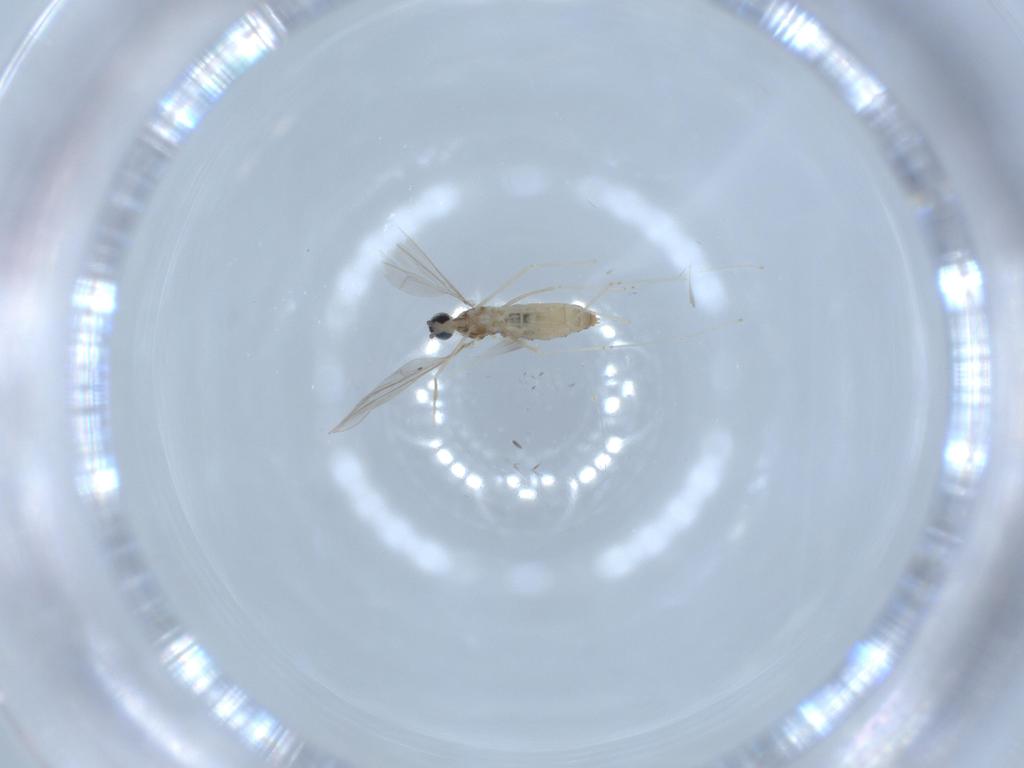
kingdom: Animalia
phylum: Arthropoda
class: Insecta
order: Diptera
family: Cecidomyiidae
